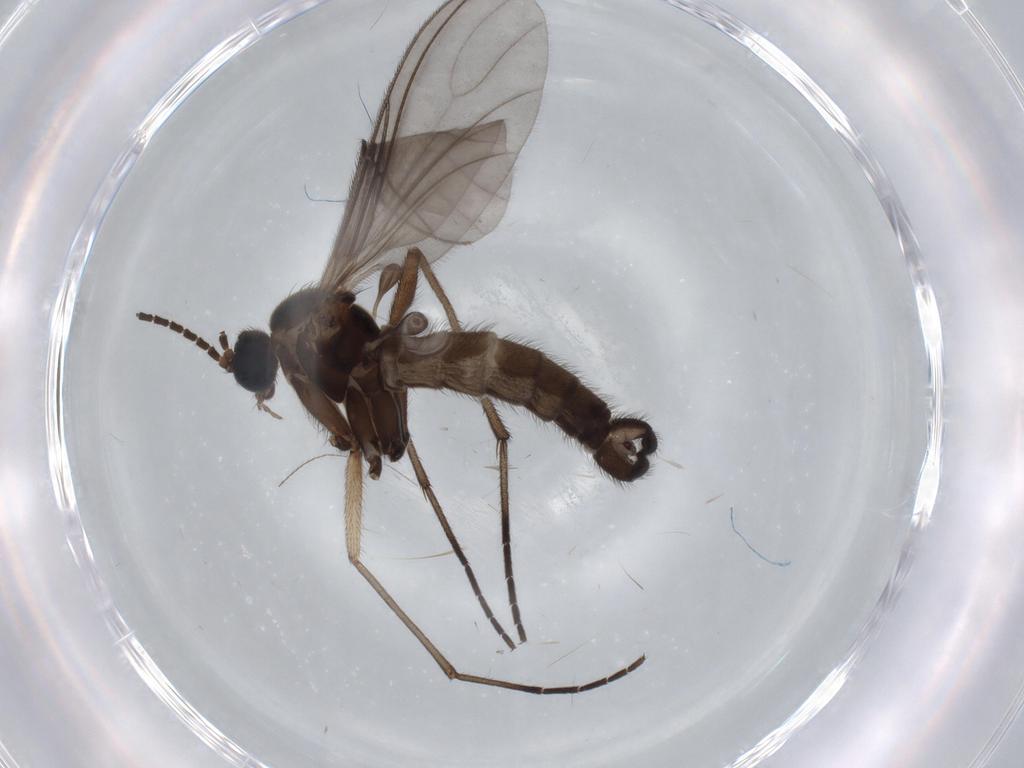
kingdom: Animalia
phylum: Arthropoda
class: Insecta
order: Diptera
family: Sciaridae
